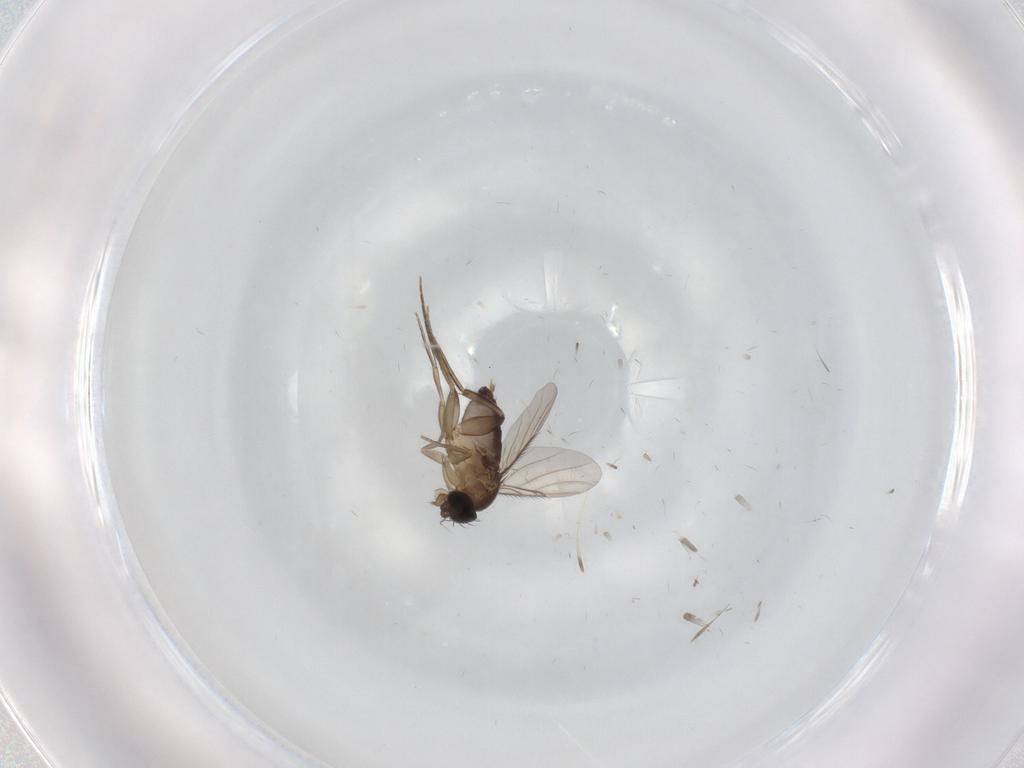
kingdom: Animalia
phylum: Arthropoda
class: Insecta
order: Diptera
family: Phoridae
